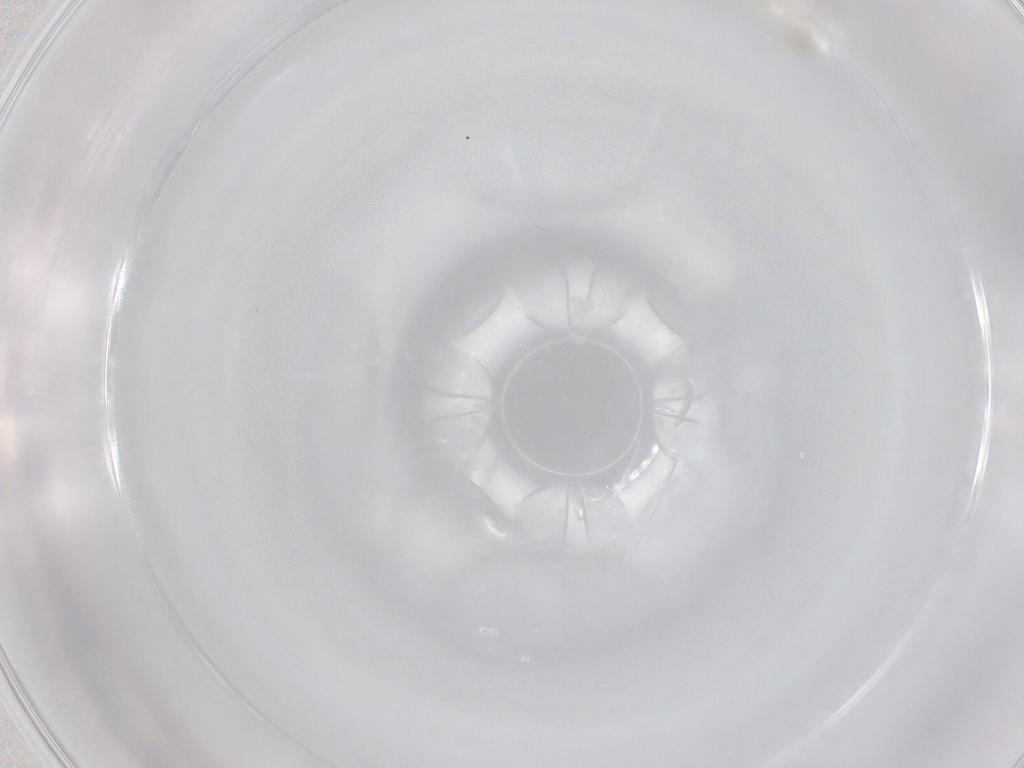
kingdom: Animalia
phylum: Arthropoda
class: Insecta
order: Hemiptera
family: Aleyrodidae
